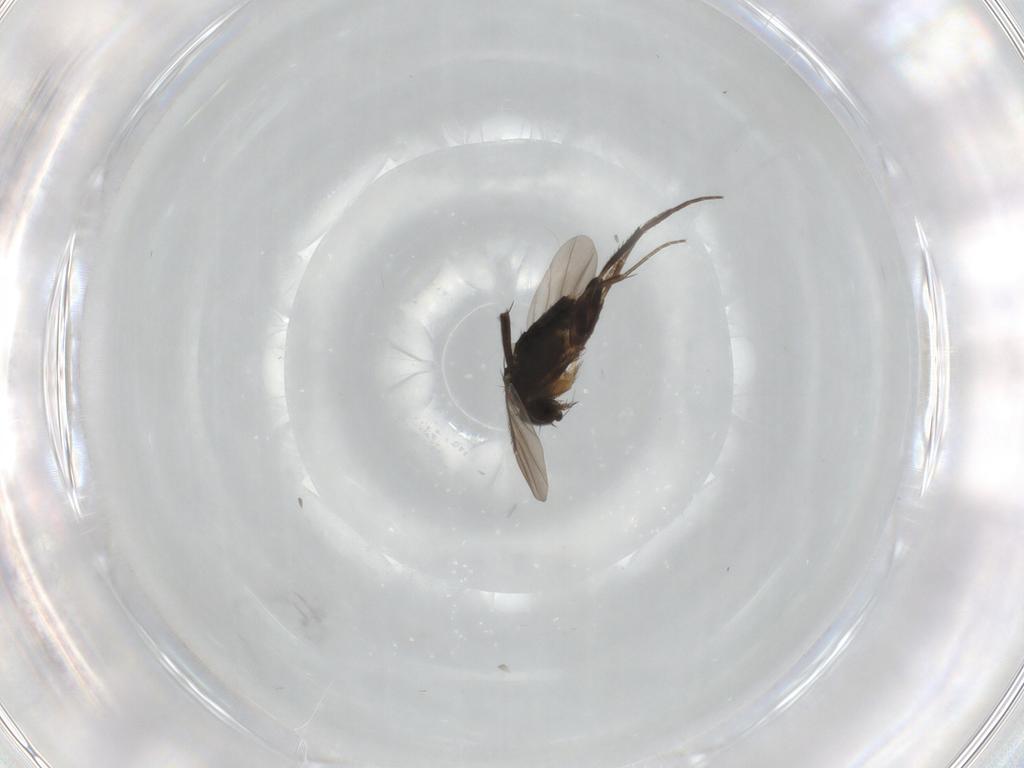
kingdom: Animalia
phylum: Arthropoda
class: Insecta
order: Diptera
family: Phoridae
